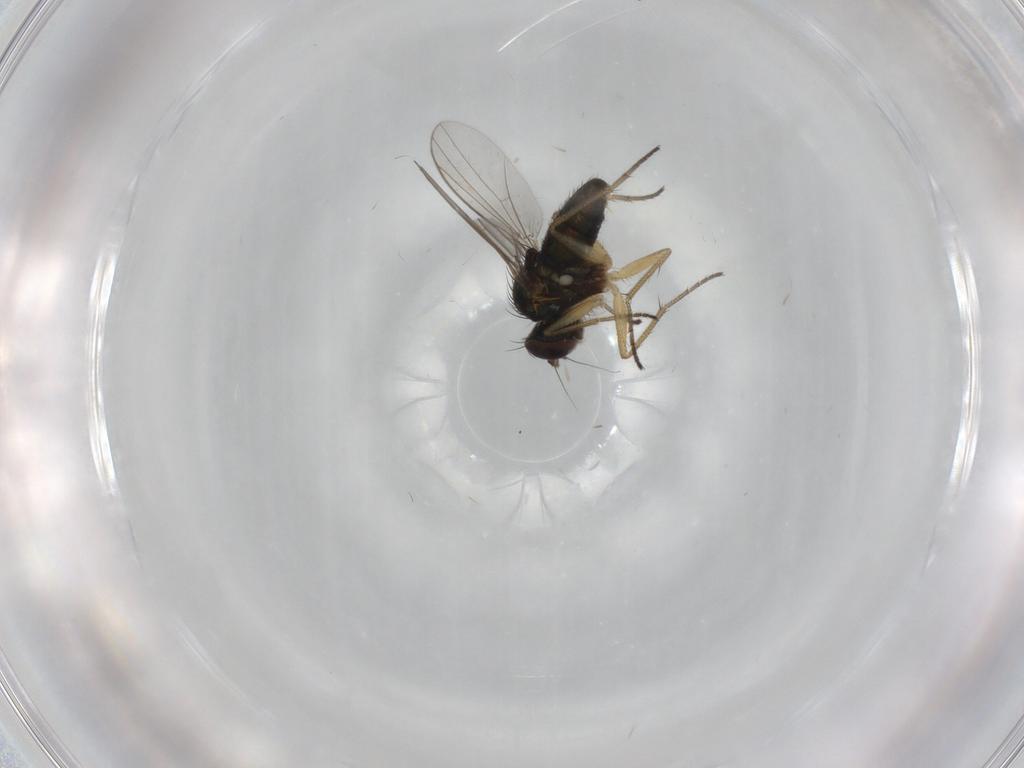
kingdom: Animalia
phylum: Arthropoda
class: Insecta
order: Diptera
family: Dolichopodidae
